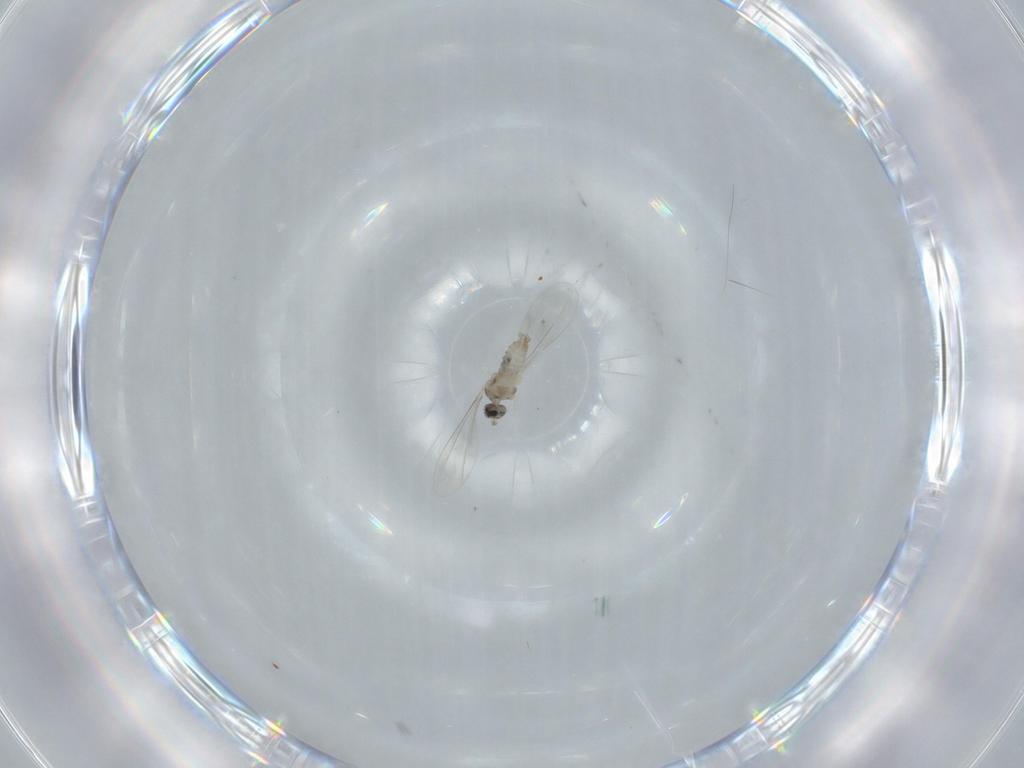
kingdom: Animalia
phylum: Arthropoda
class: Insecta
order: Diptera
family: Cecidomyiidae
